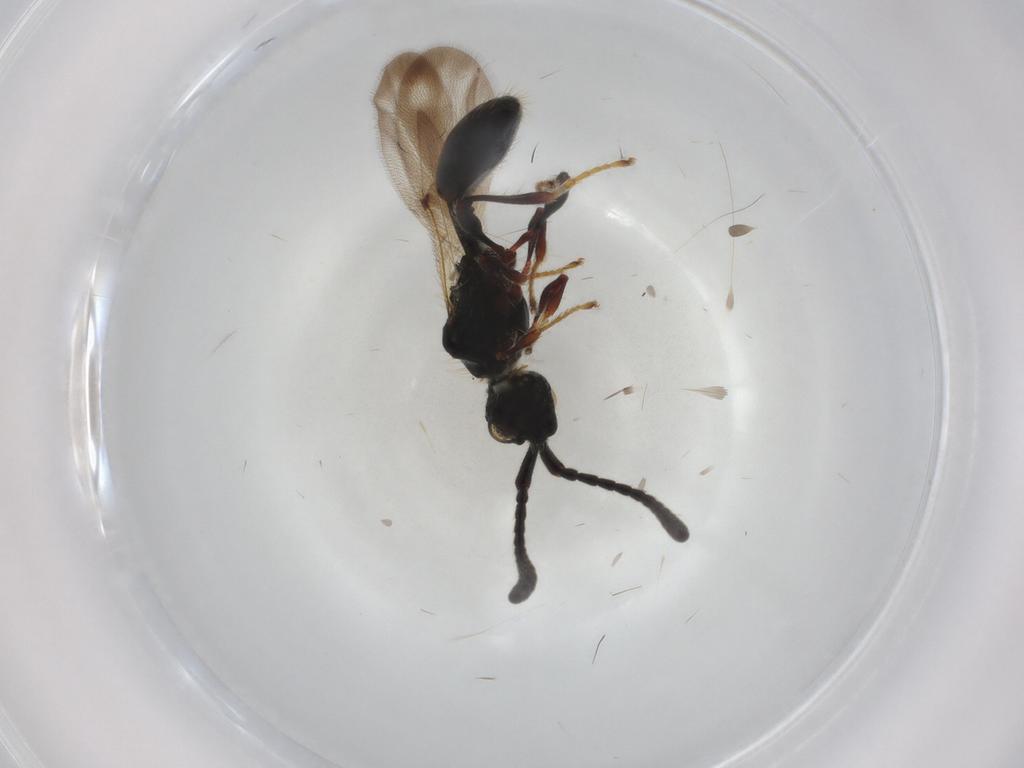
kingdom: Animalia
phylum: Arthropoda
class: Insecta
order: Hymenoptera
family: Diapriidae
